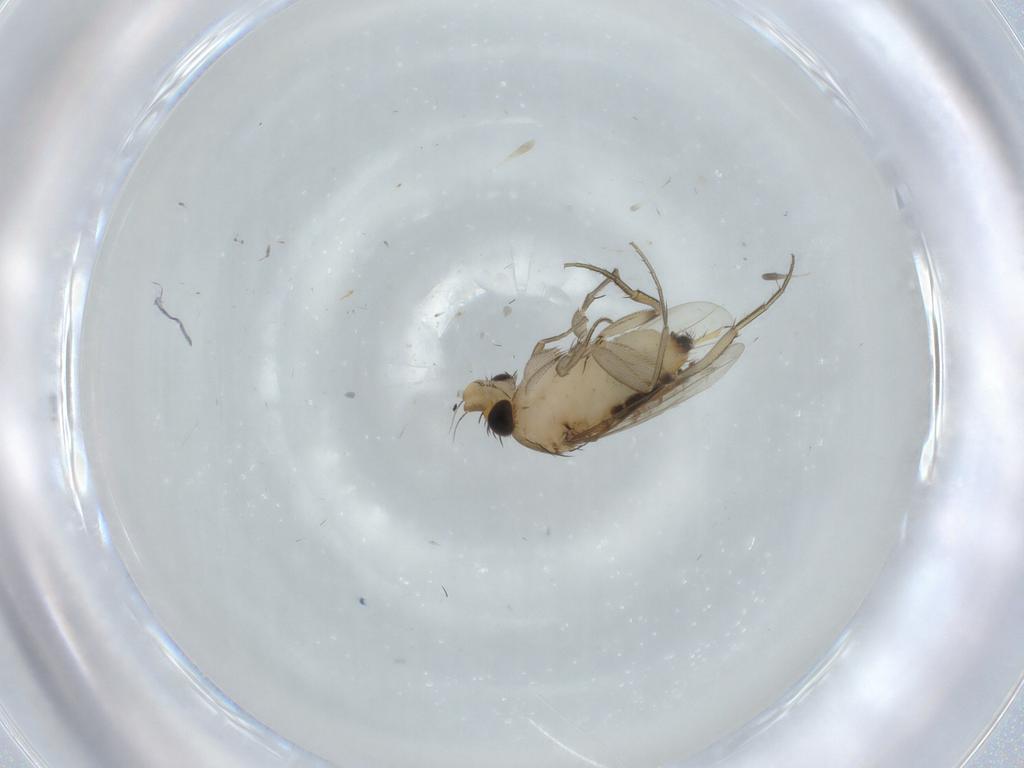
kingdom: Animalia
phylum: Arthropoda
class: Insecta
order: Diptera
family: Phoridae
